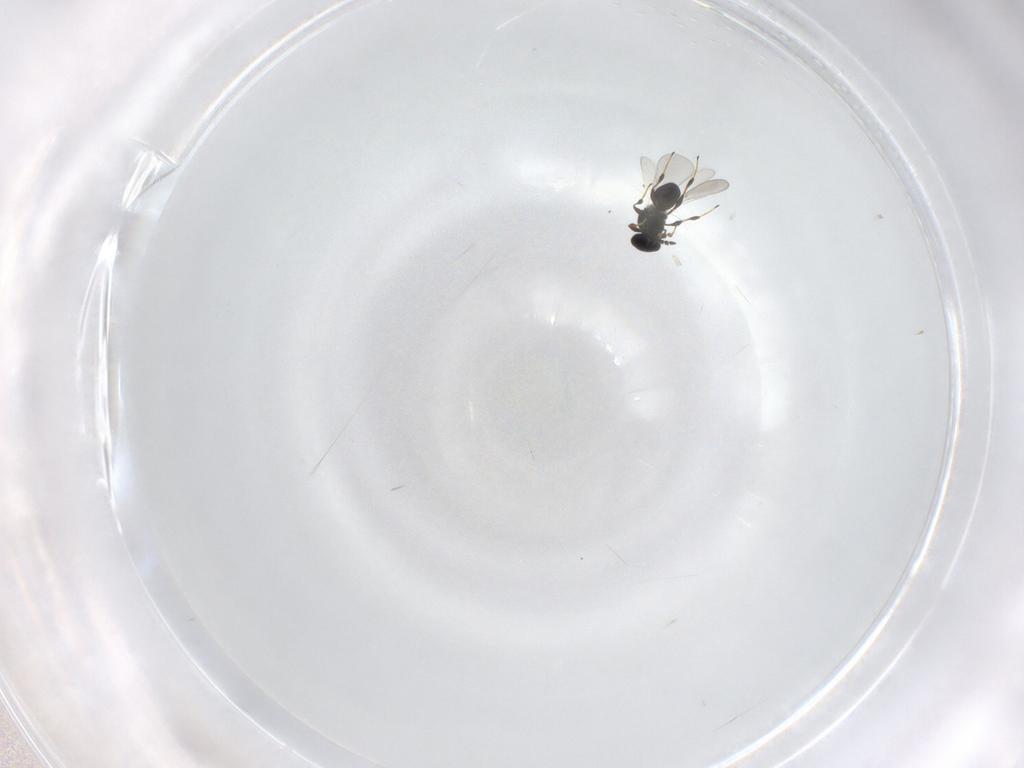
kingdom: Animalia
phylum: Arthropoda
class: Insecta
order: Hymenoptera
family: Platygastridae
